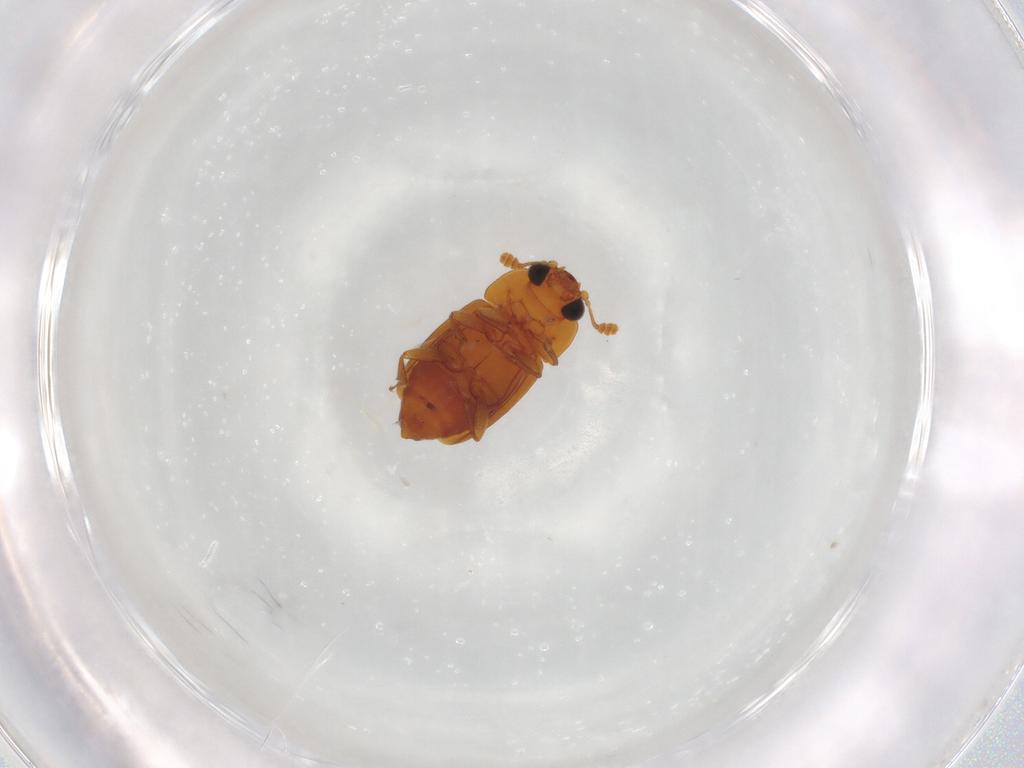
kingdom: Animalia
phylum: Arthropoda
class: Insecta
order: Coleoptera
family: Nitidulidae
